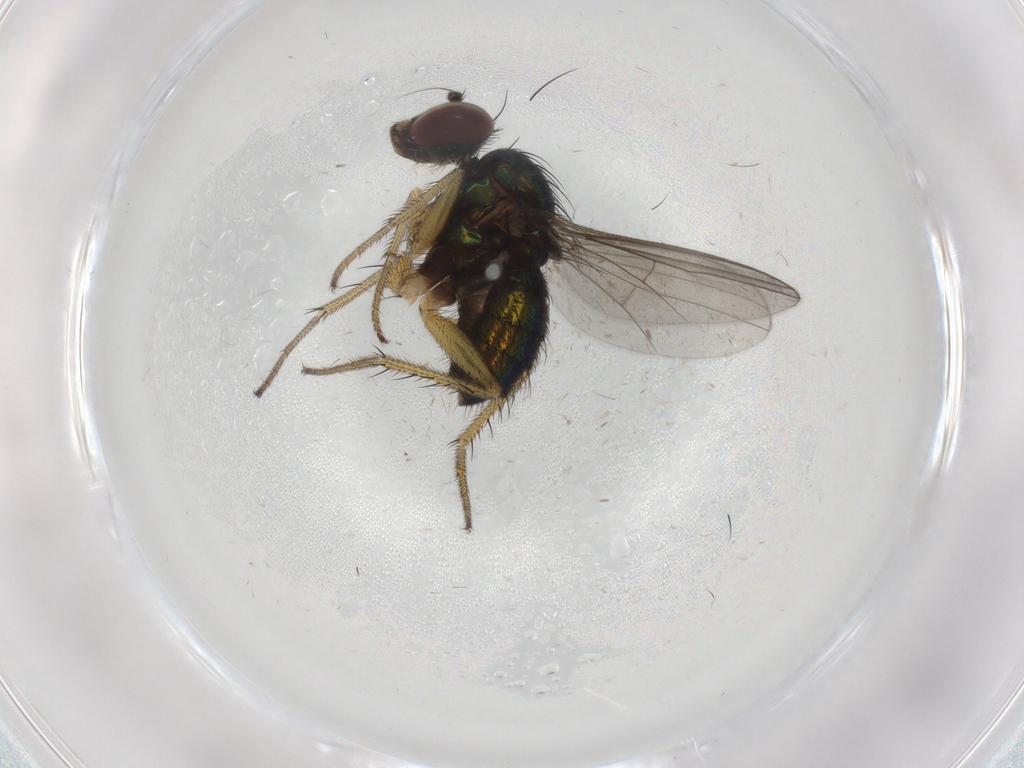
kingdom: Animalia
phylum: Arthropoda
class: Insecta
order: Diptera
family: Dolichopodidae
